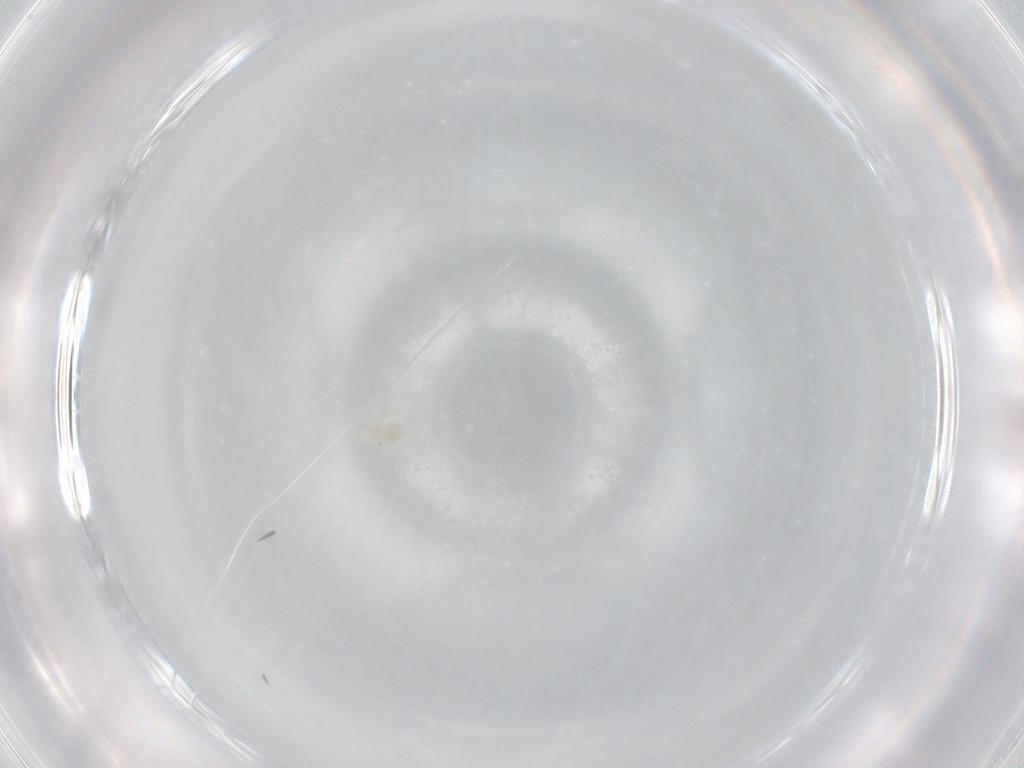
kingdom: Animalia
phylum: Arthropoda
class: Arachnida
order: Trombidiformes
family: Anystidae
